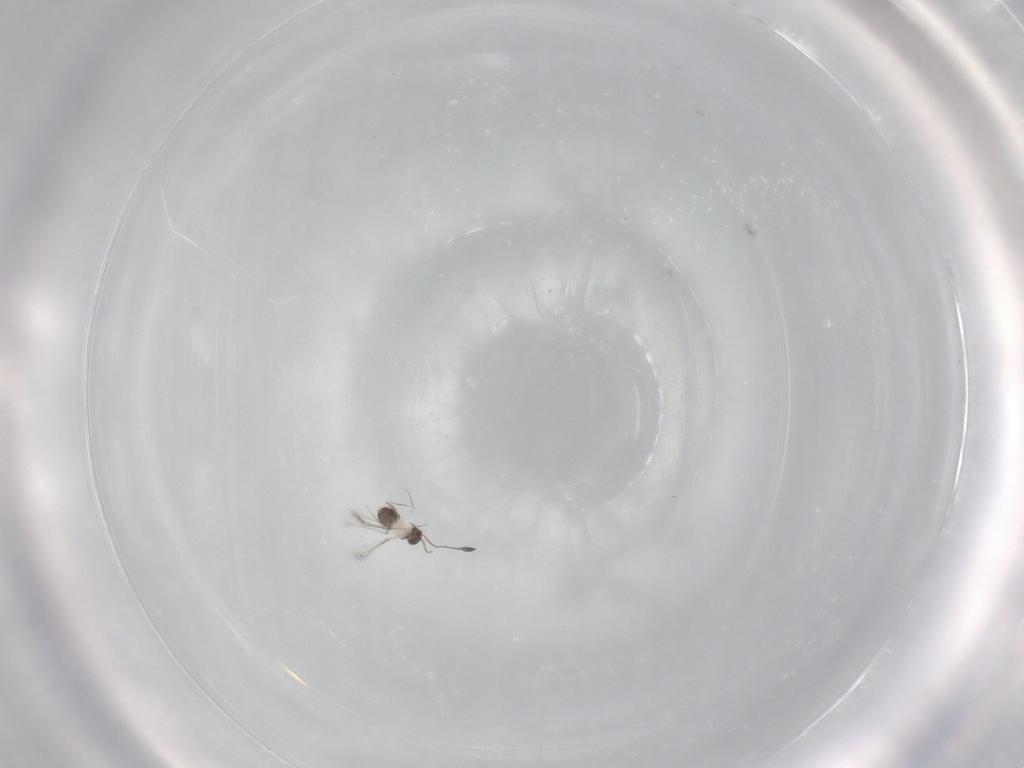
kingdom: Animalia
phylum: Arthropoda
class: Insecta
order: Hymenoptera
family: Mymaridae
